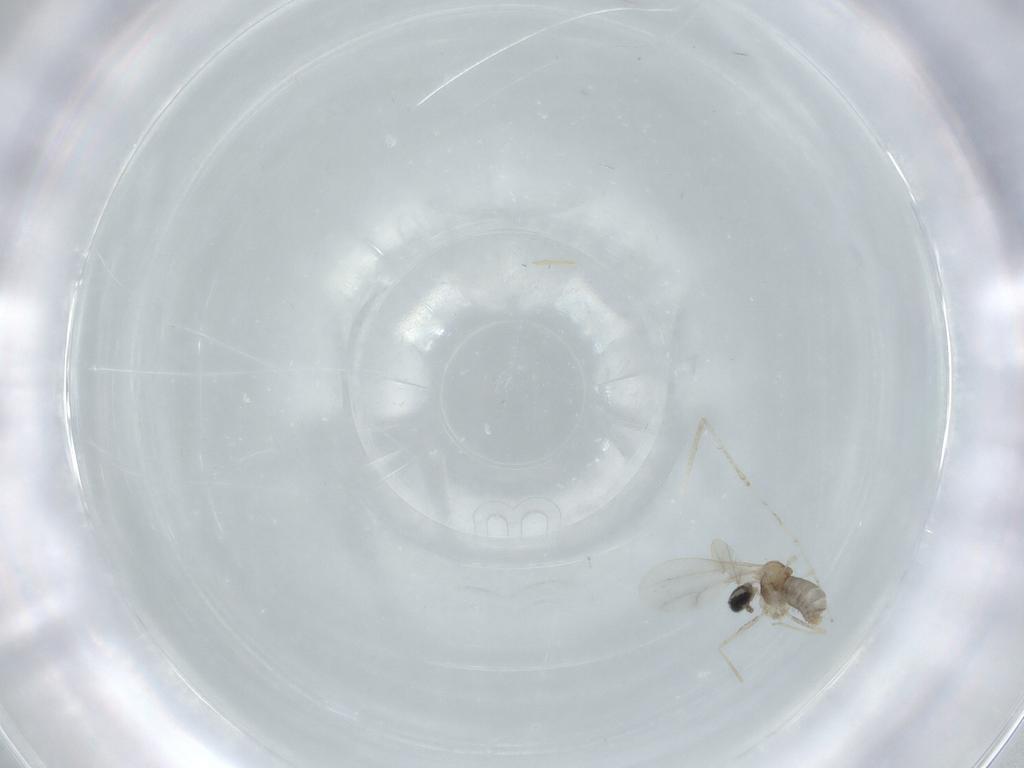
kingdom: Animalia
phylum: Arthropoda
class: Insecta
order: Diptera
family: Cecidomyiidae
